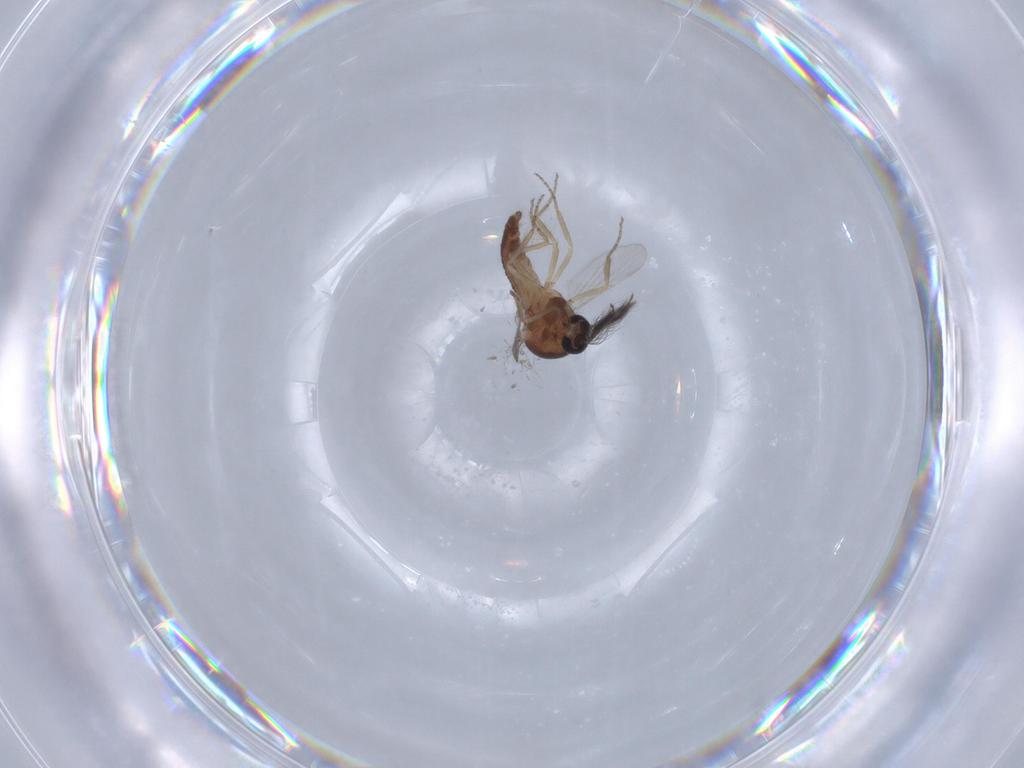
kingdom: Animalia
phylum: Arthropoda
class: Insecta
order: Diptera
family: Ceratopogonidae
